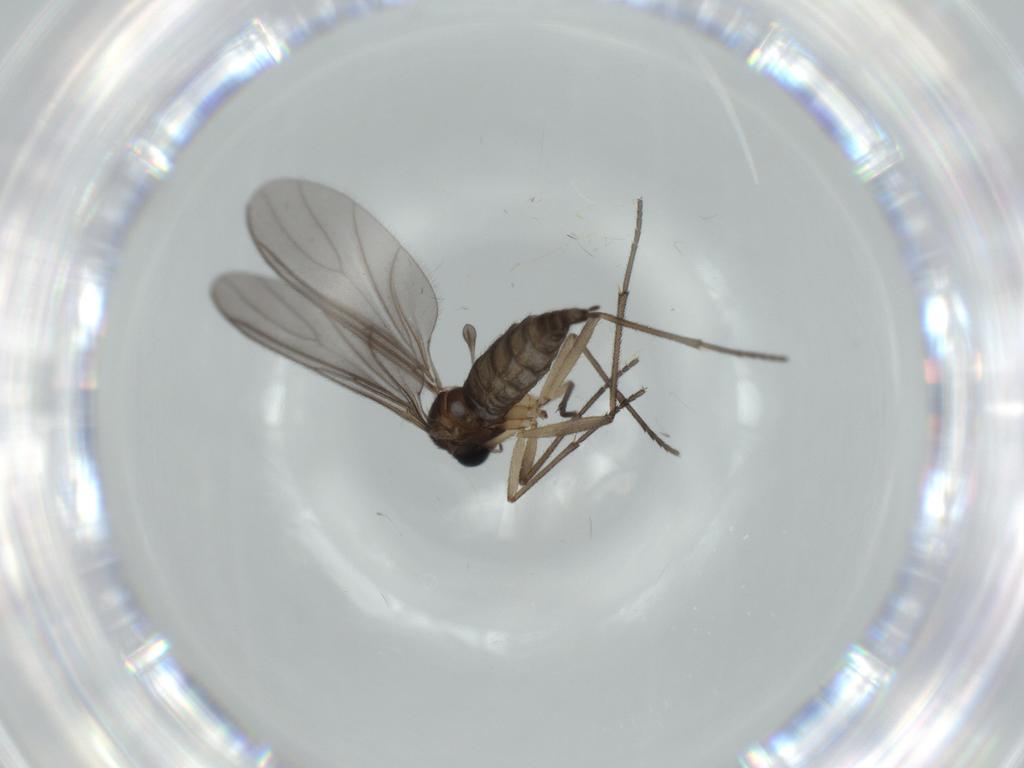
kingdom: Animalia
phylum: Arthropoda
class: Insecta
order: Diptera
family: Sciaridae
